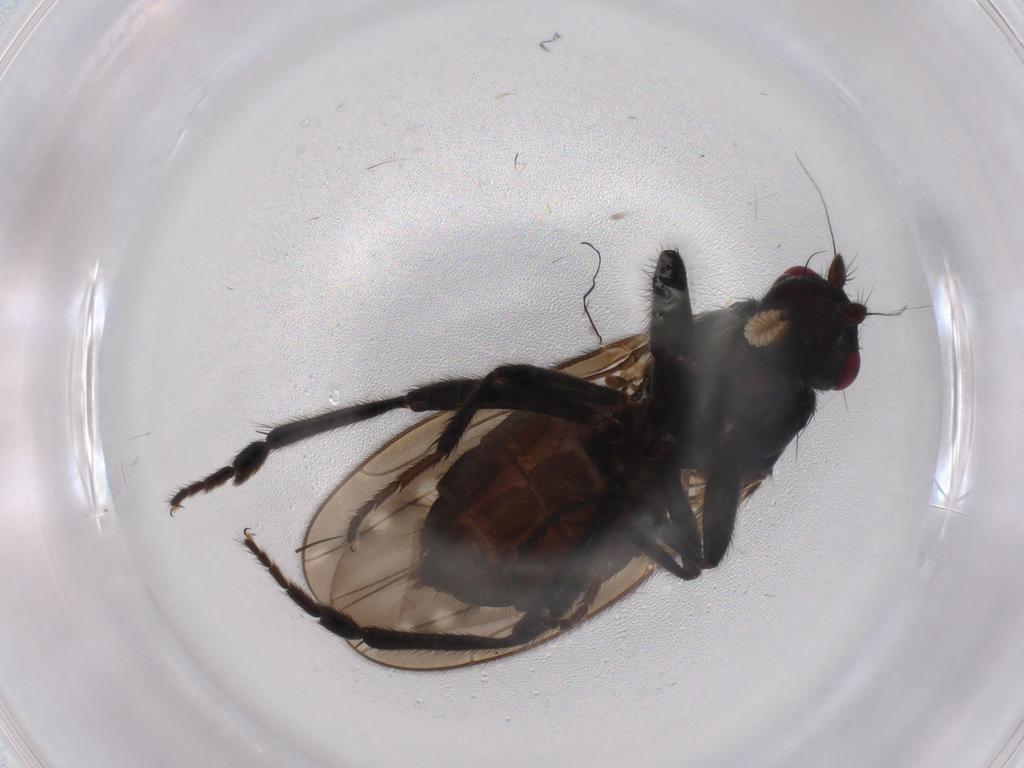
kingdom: Animalia
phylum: Arthropoda
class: Insecta
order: Diptera
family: Sphaeroceridae
